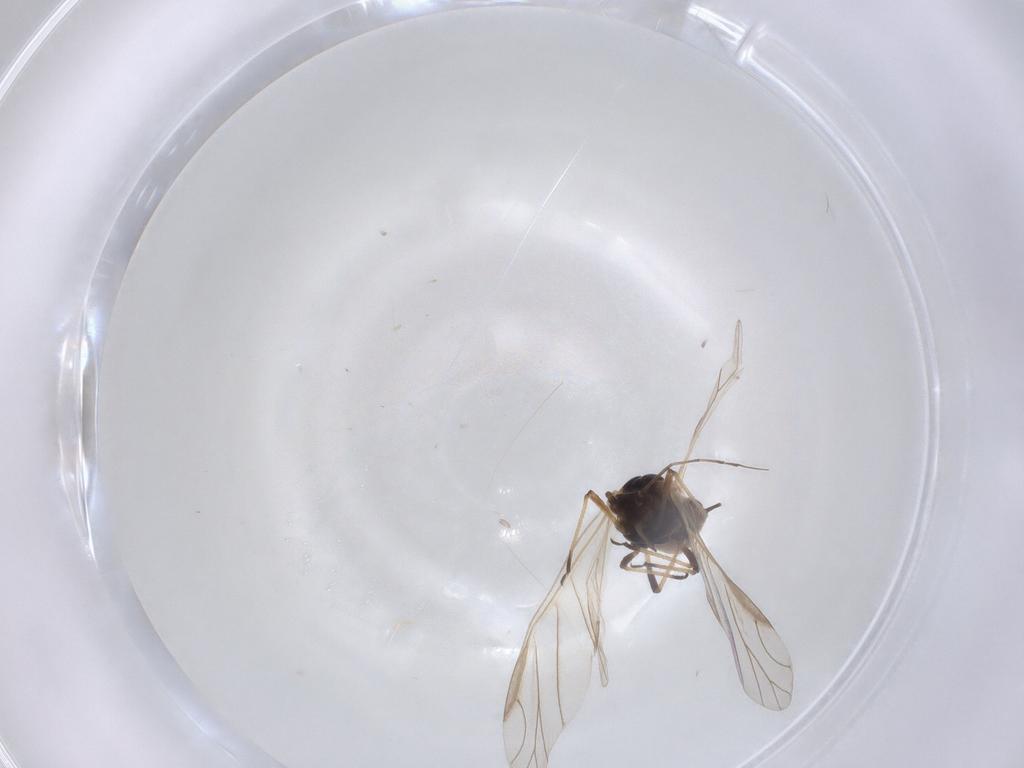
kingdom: Animalia
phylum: Arthropoda
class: Insecta
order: Hemiptera
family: Aphididae
